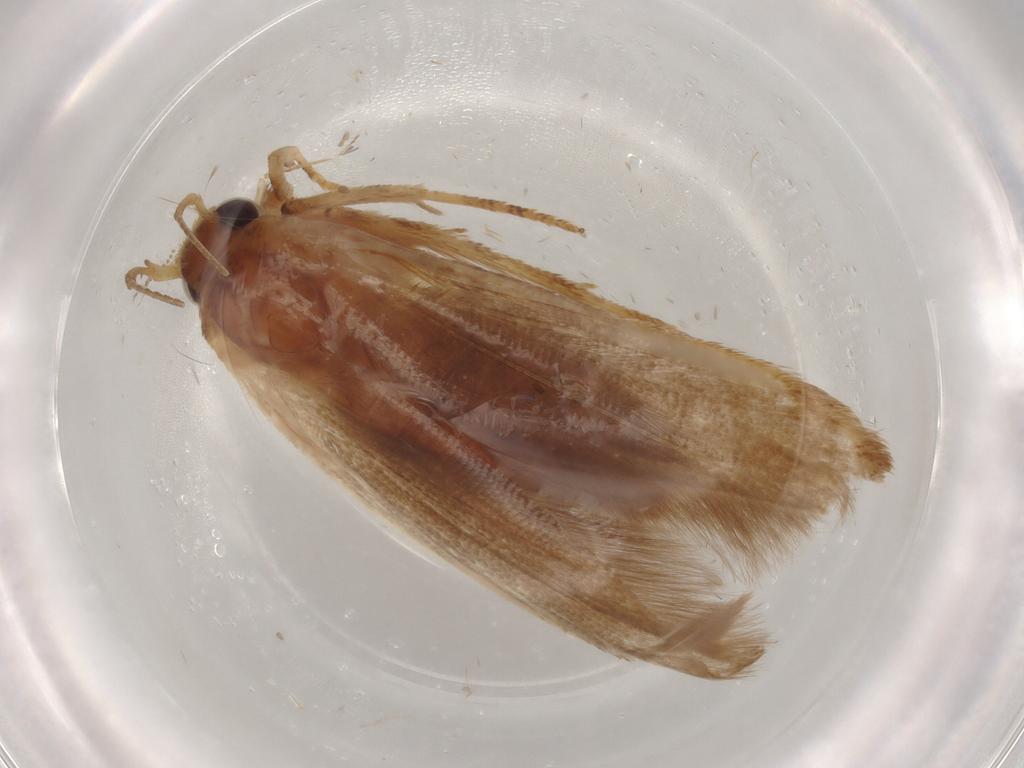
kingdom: Animalia
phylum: Arthropoda
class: Insecta
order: Lepidoptera
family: Blastobasidae
